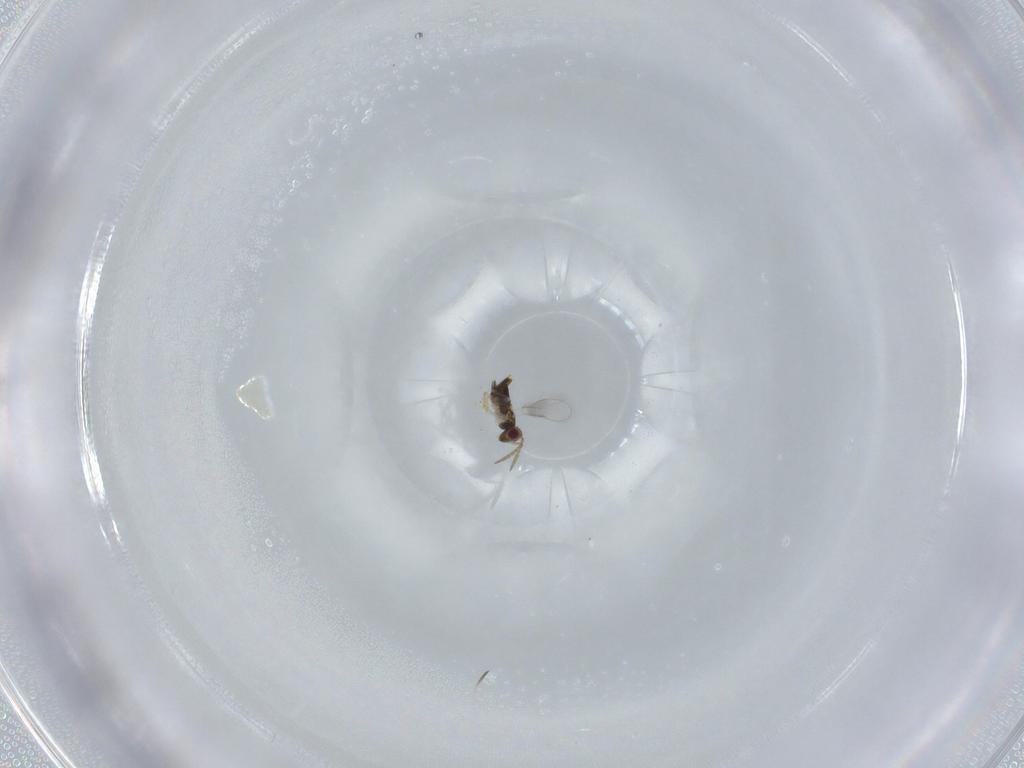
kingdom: Animalia
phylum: Arthropoda
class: Insecta
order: Hymenoptera
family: Aphelinidae
